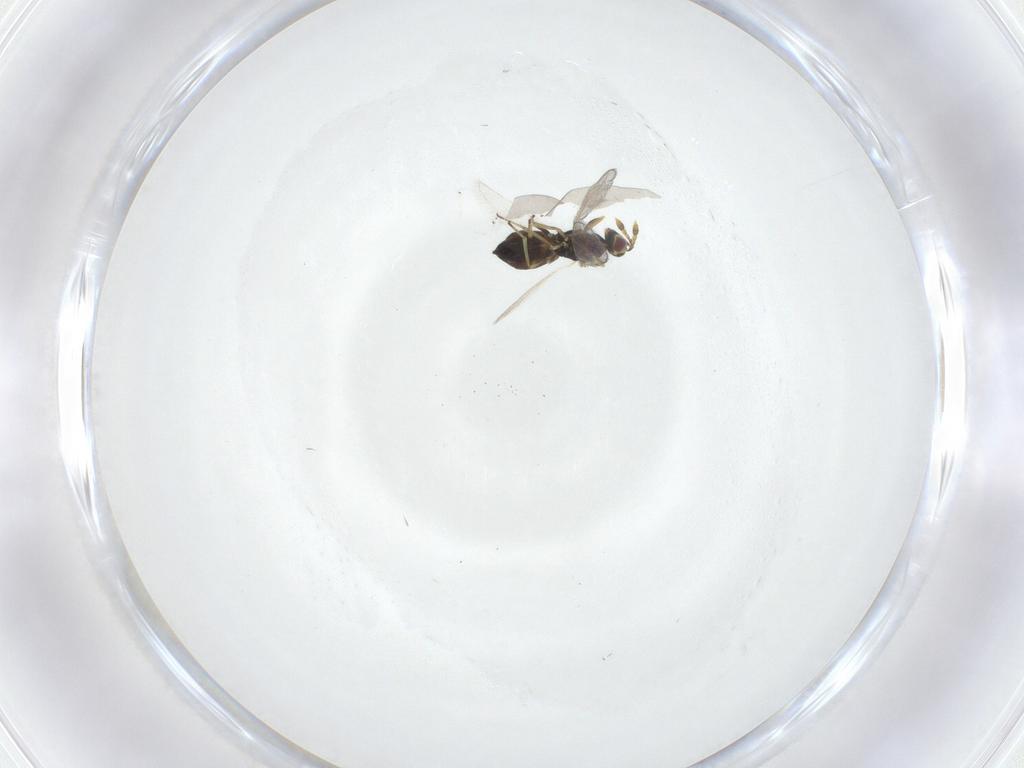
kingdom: Animalia
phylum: Arthropoda
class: Insecta
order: Hymenoptera
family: Eulophidae
